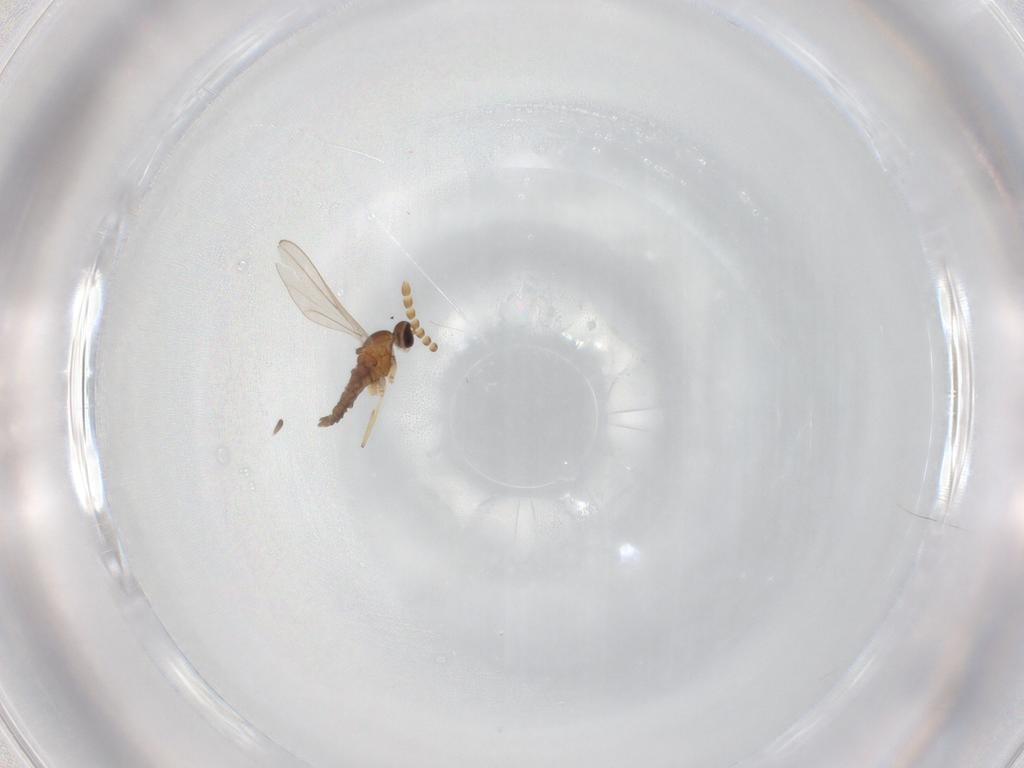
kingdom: Animalia
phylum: Arthropoda
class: Insecta
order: Diptera
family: Cecidomyiidae
